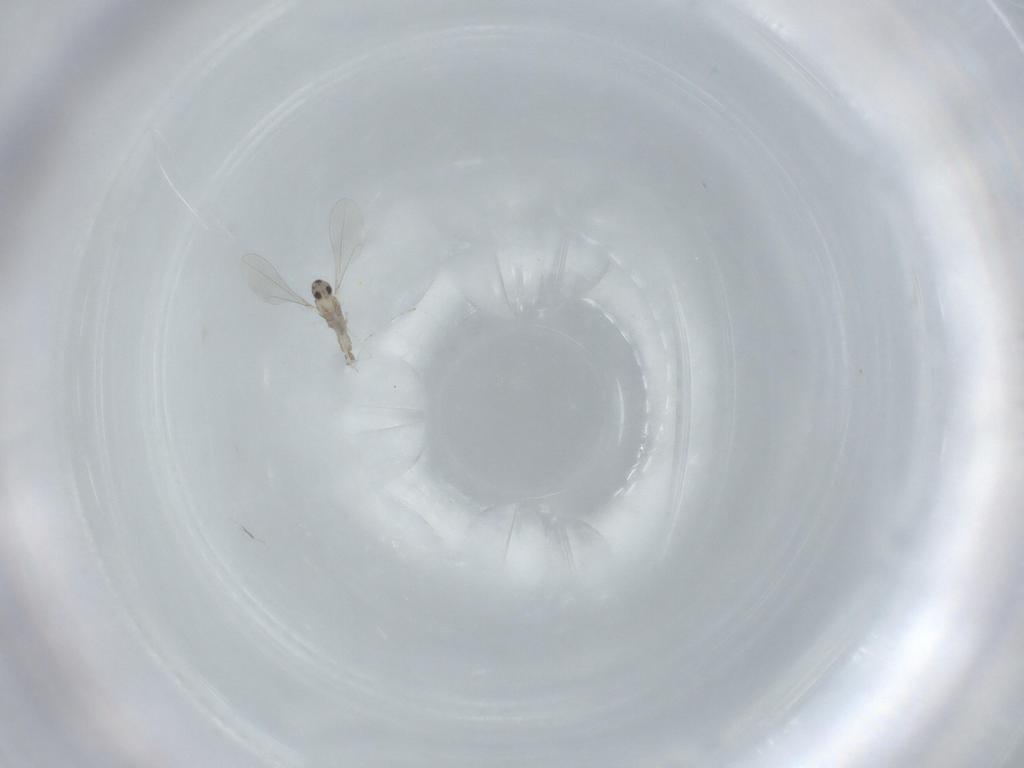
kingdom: Animalia
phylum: Arthropoda
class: Insecta
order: Diptera
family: Cecidomyiidae
